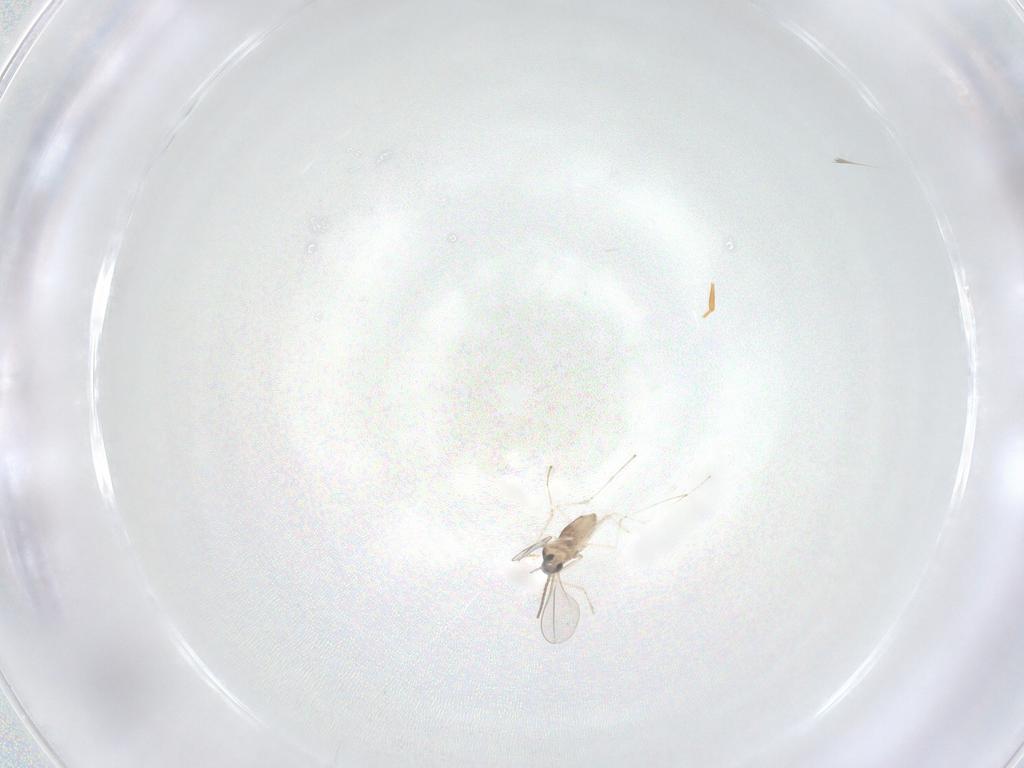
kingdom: Animalia
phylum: Arthropoda
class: Insecta
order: Diptera
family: Cecidomyiidae
